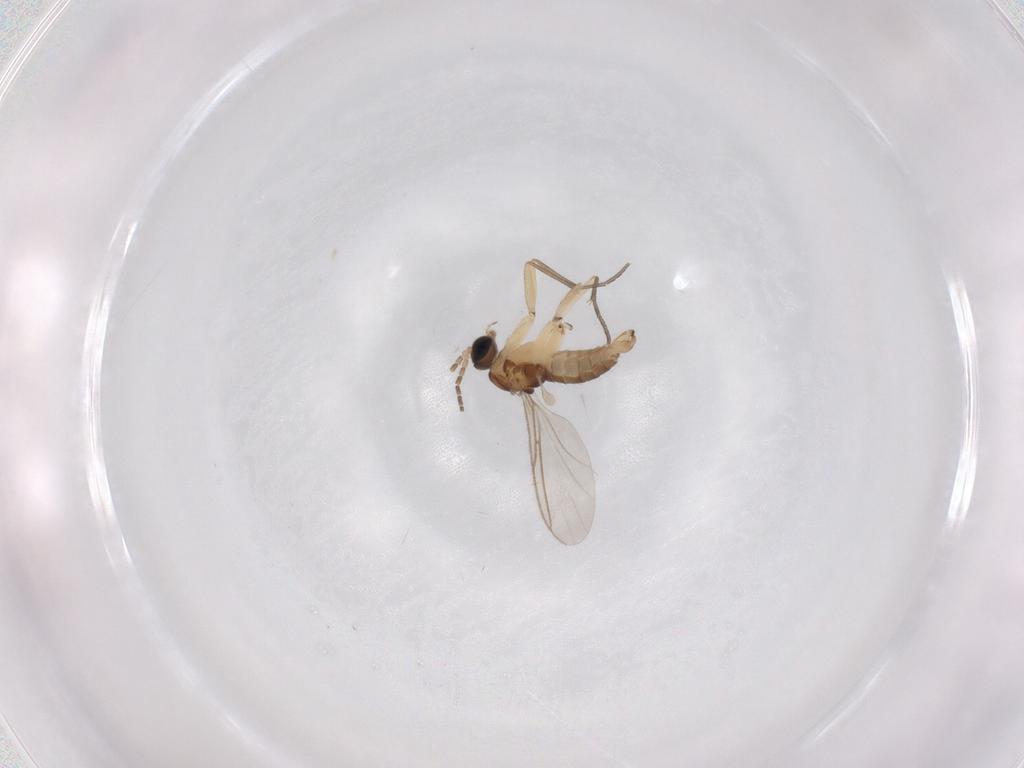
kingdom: Animalia
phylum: Arthropoda
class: Insecta
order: Diptera
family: Sciaridae
